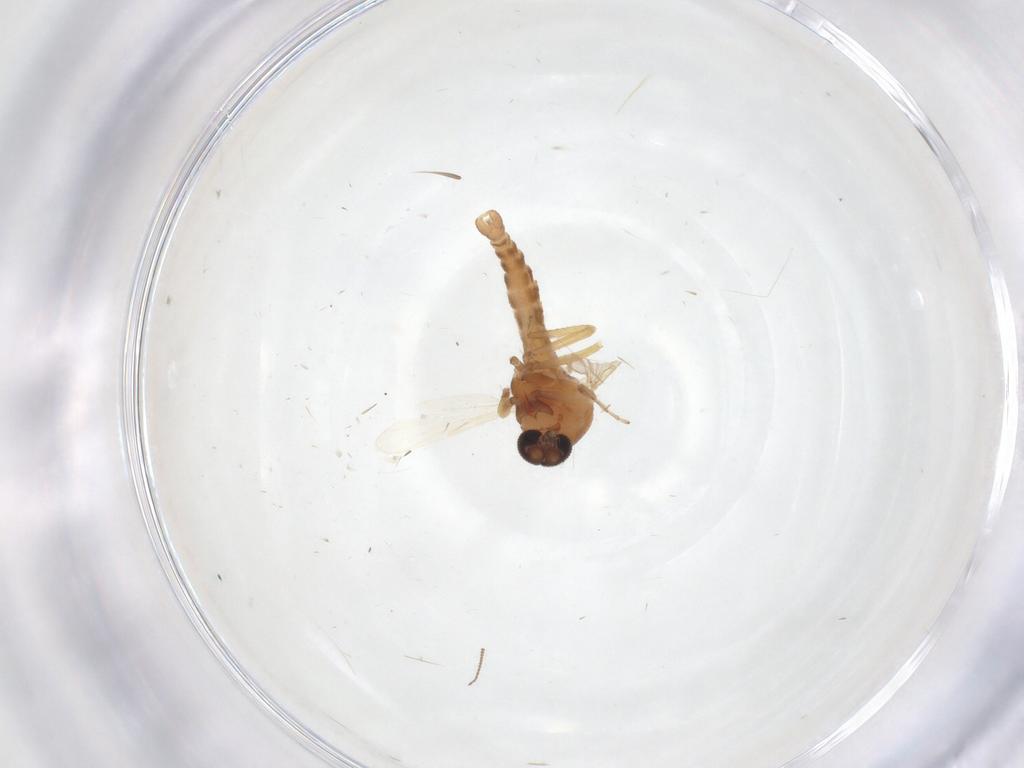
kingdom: Animalia
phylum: Arthropoda
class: Insecta
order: Diptera
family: Ceratopogonidae
